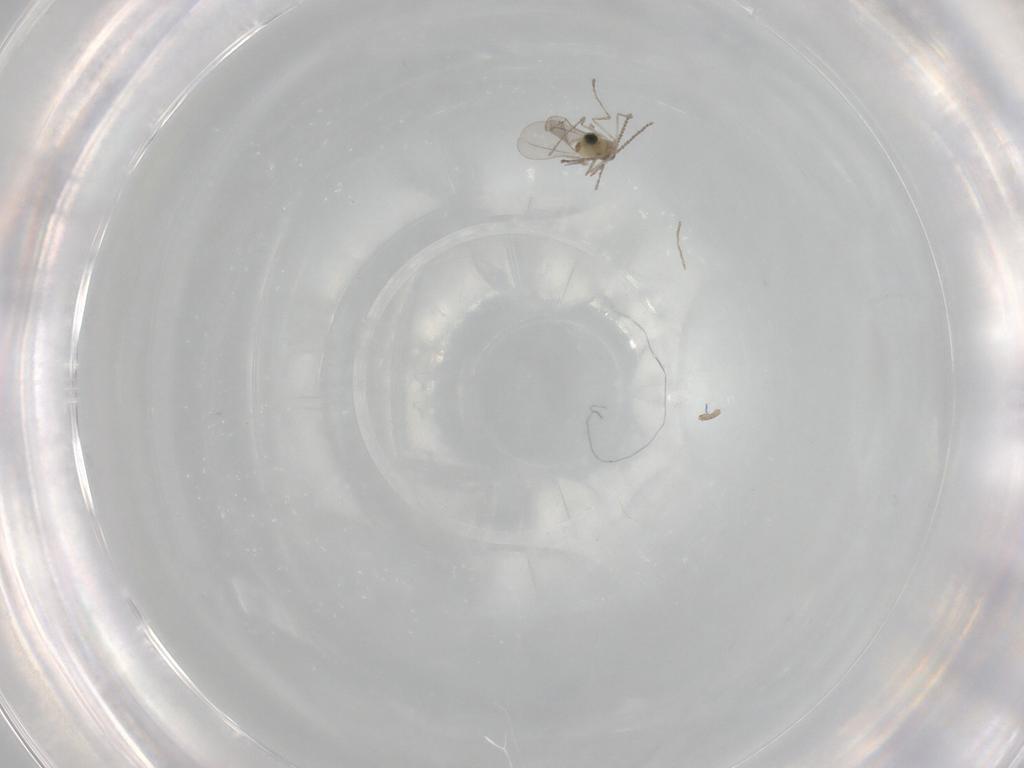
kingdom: Animalia
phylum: Arthropoda
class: Insecta
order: Diptera
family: Cecidomyiidae
